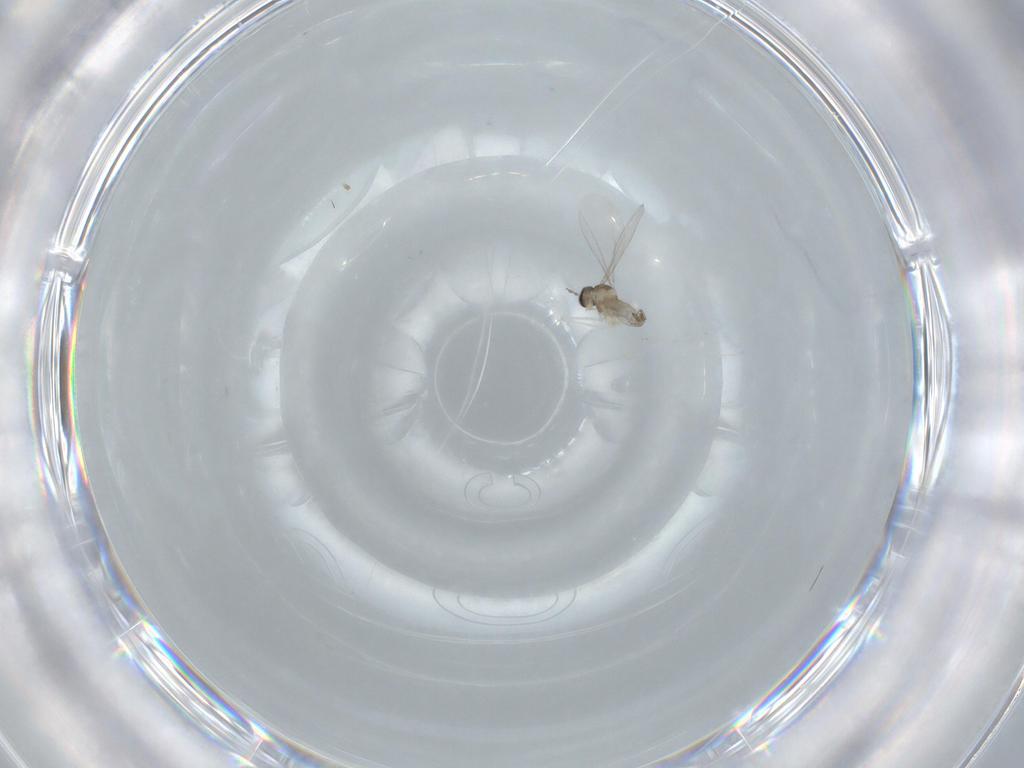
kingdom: Animalia
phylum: Arthropoda
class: Insecta
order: Diptera
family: Cecidomyiidae
